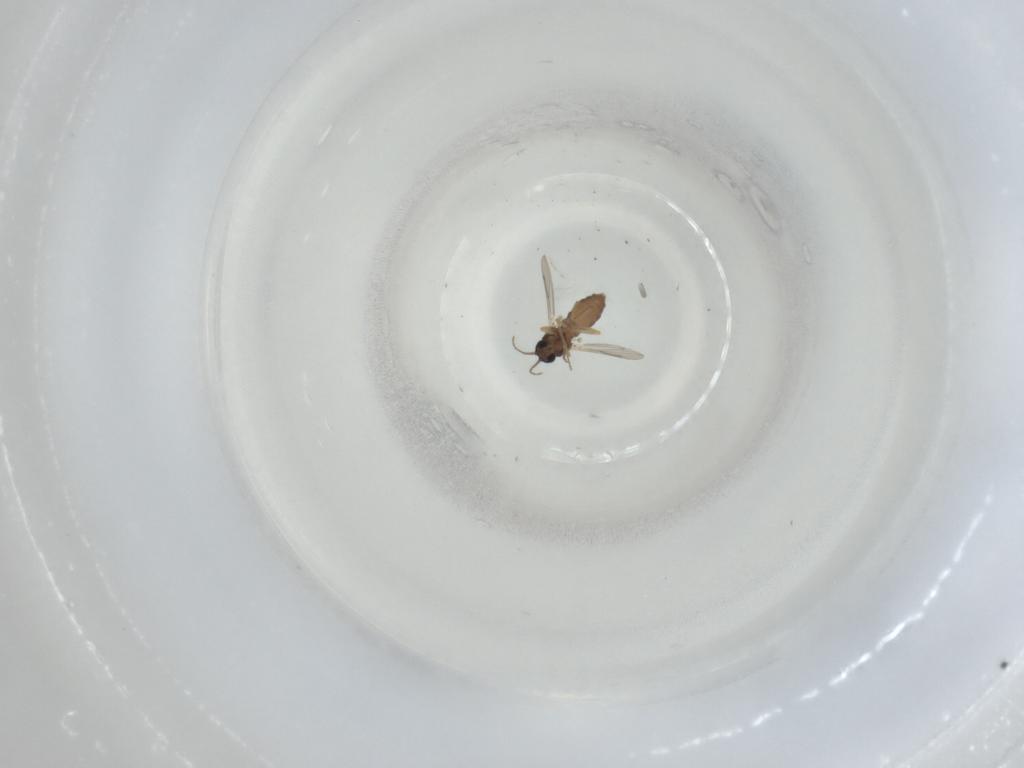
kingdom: Animalia
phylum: Arthropoda
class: Insecta
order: Diptera
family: Ceratopogonidae
